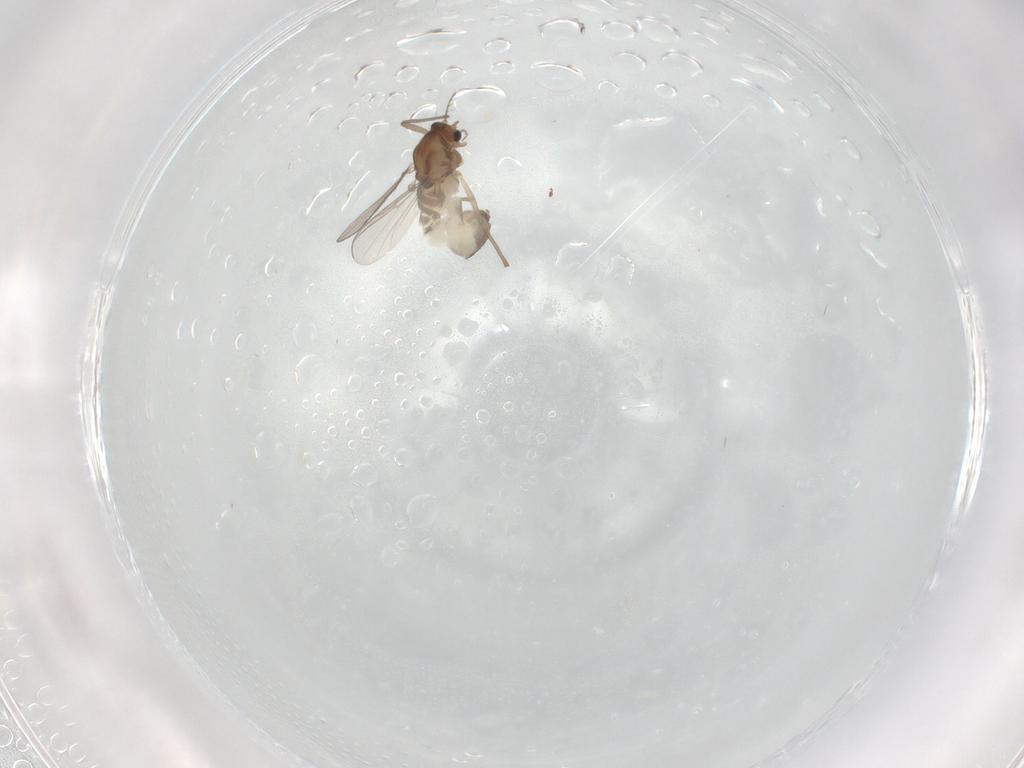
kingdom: Animalia
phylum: Arthropoda
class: Insecta
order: Diptera
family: Chironomidae
